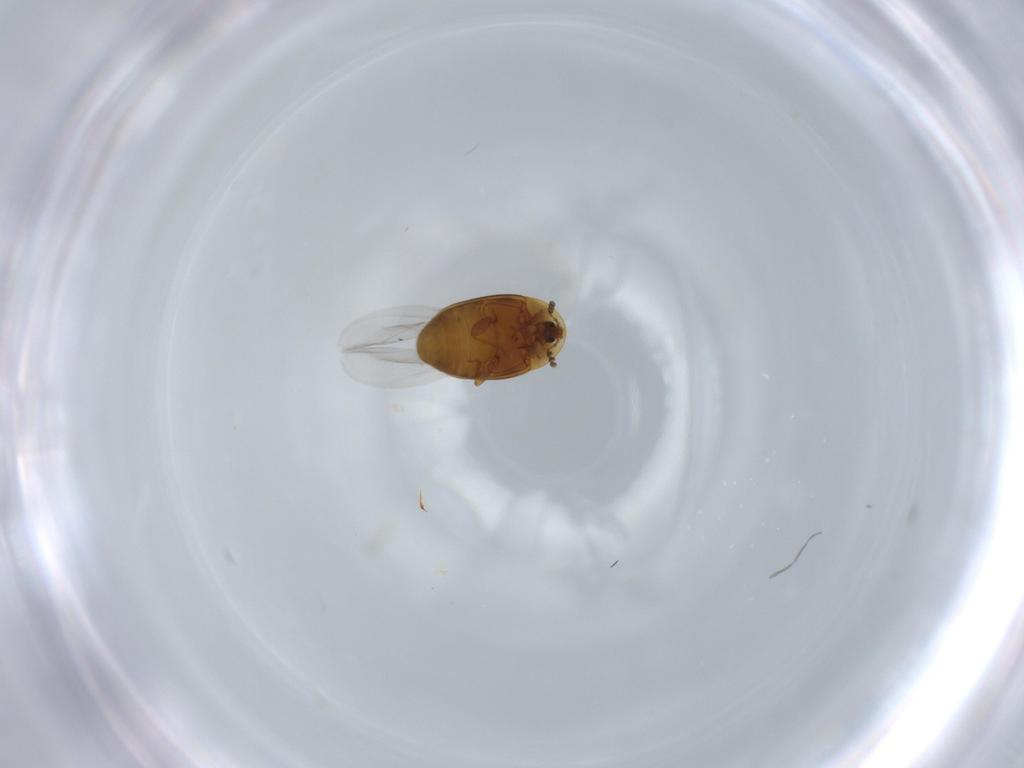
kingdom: Animalia
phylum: Arthropoda
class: Insecta
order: Coleoptera
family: Corylophidae
